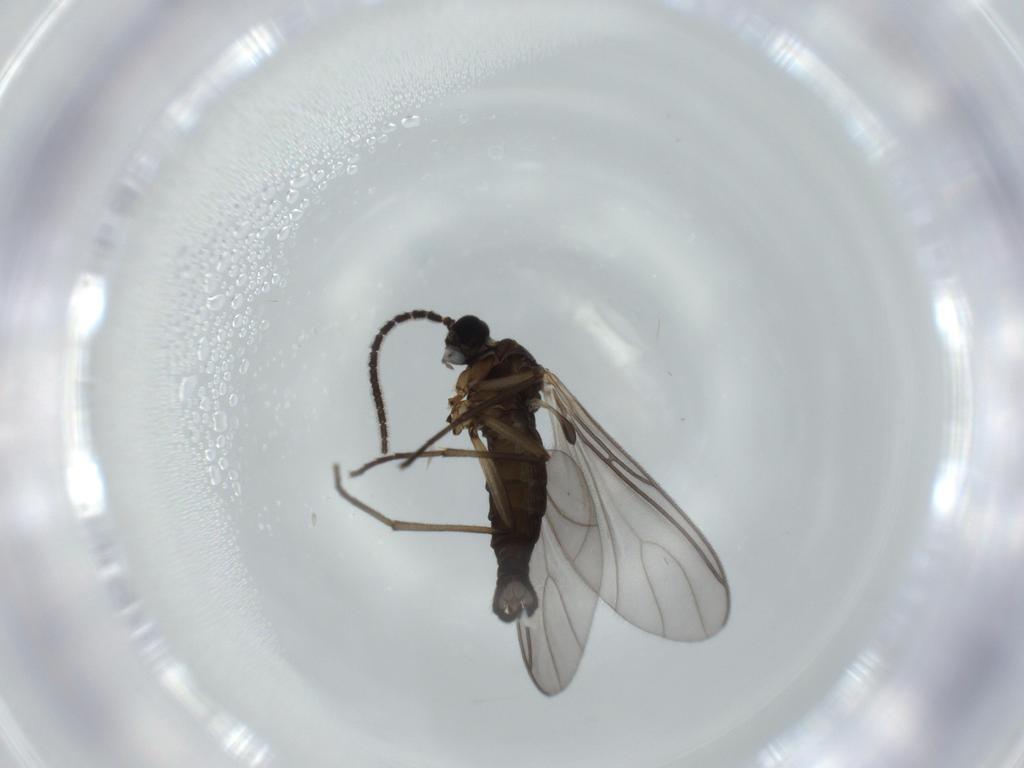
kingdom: Animalia
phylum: Arthropoda
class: Insecta
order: Diptera
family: Sciaridae
